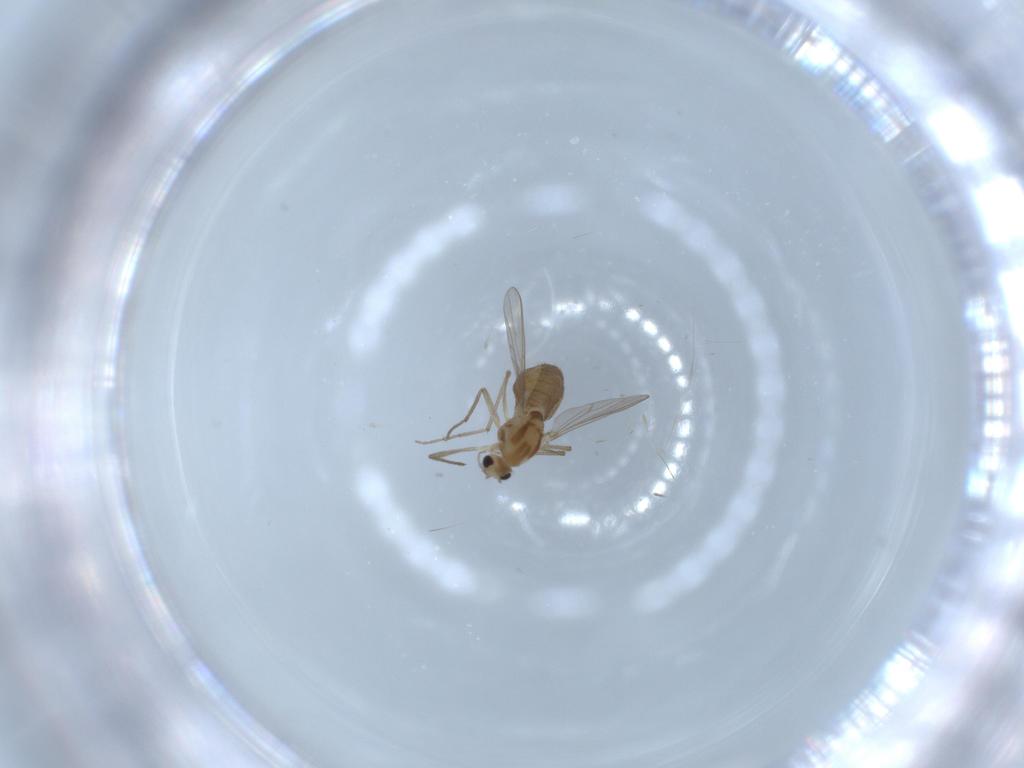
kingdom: Animalia
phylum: Arthropoda
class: Insecta
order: Diptera
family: Chironomidae
